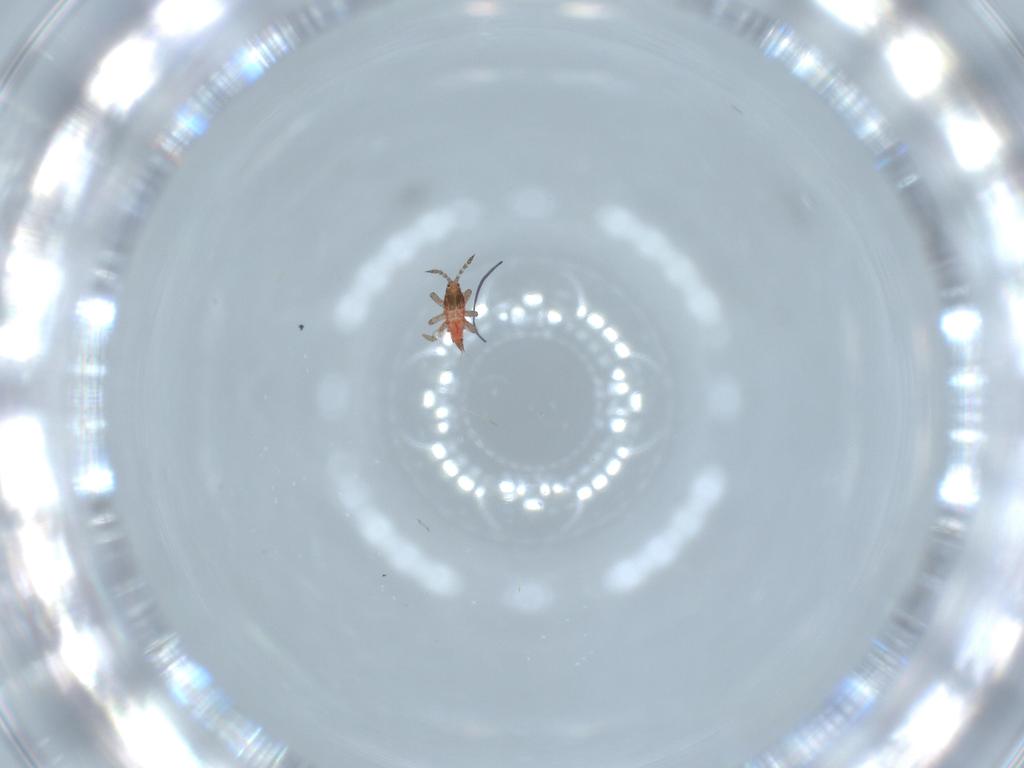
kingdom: Animalia
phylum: Arthropoda
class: Insecta
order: Thysanoptera
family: Phlaeothripidae
